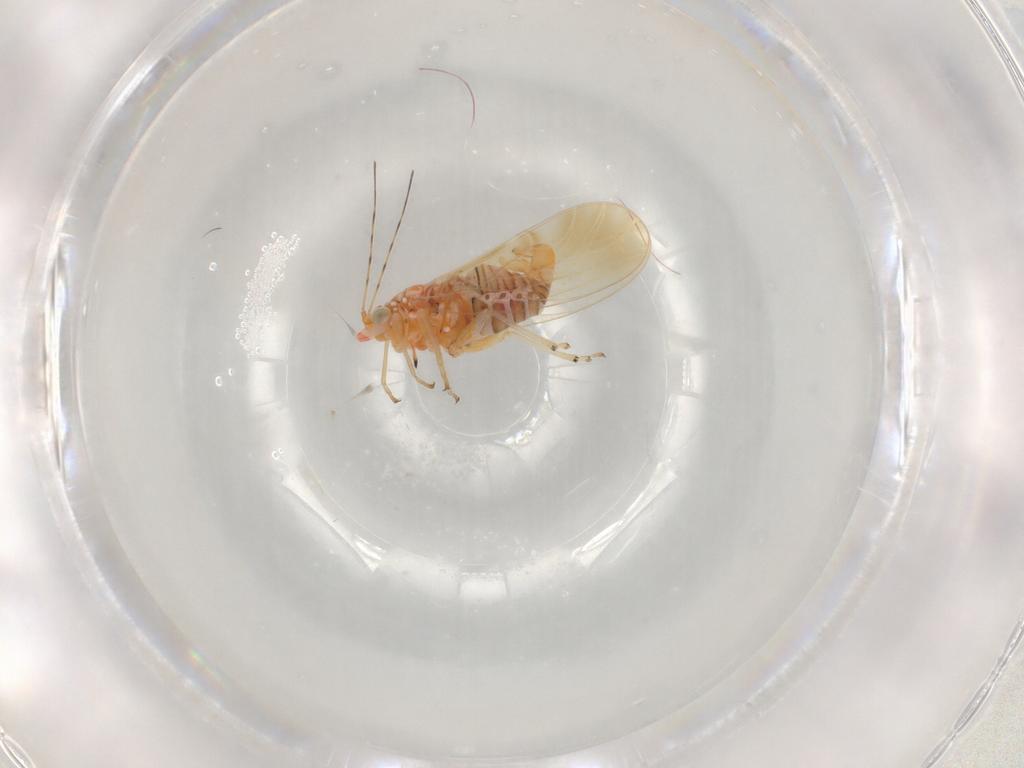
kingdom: Animalia
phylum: Arthropoda
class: Insecta
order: Hemiptera
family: Psyllidae
